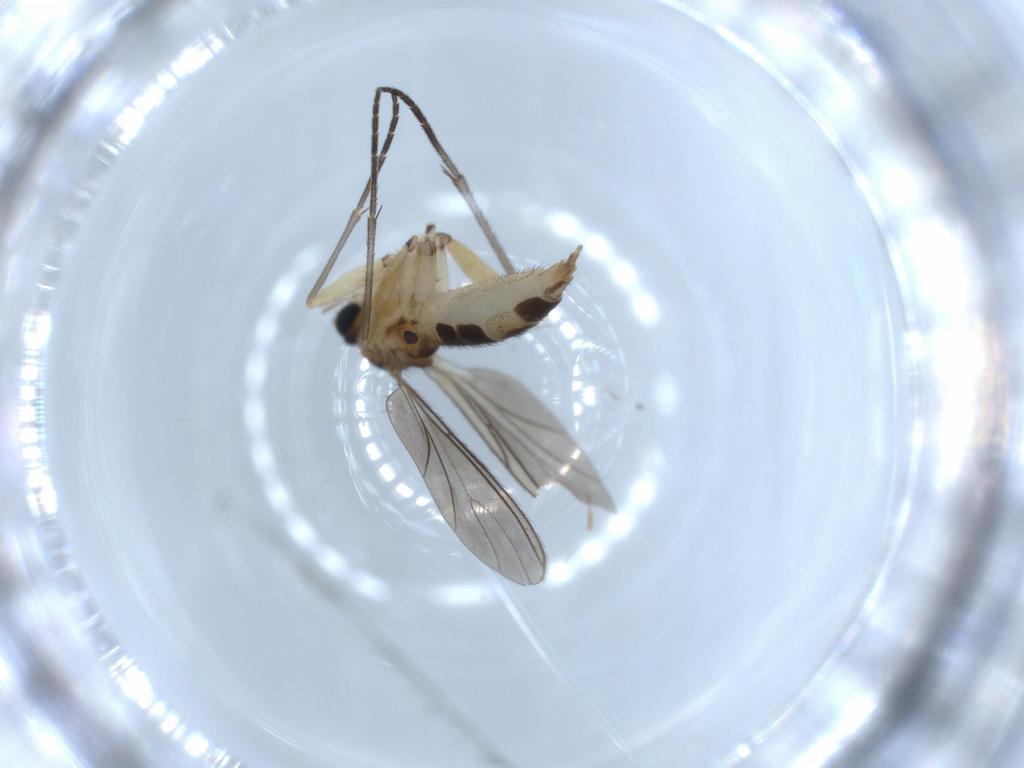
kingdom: Animalia
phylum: Arthropoda
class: Insecta
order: Diptera
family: Sciaridae
